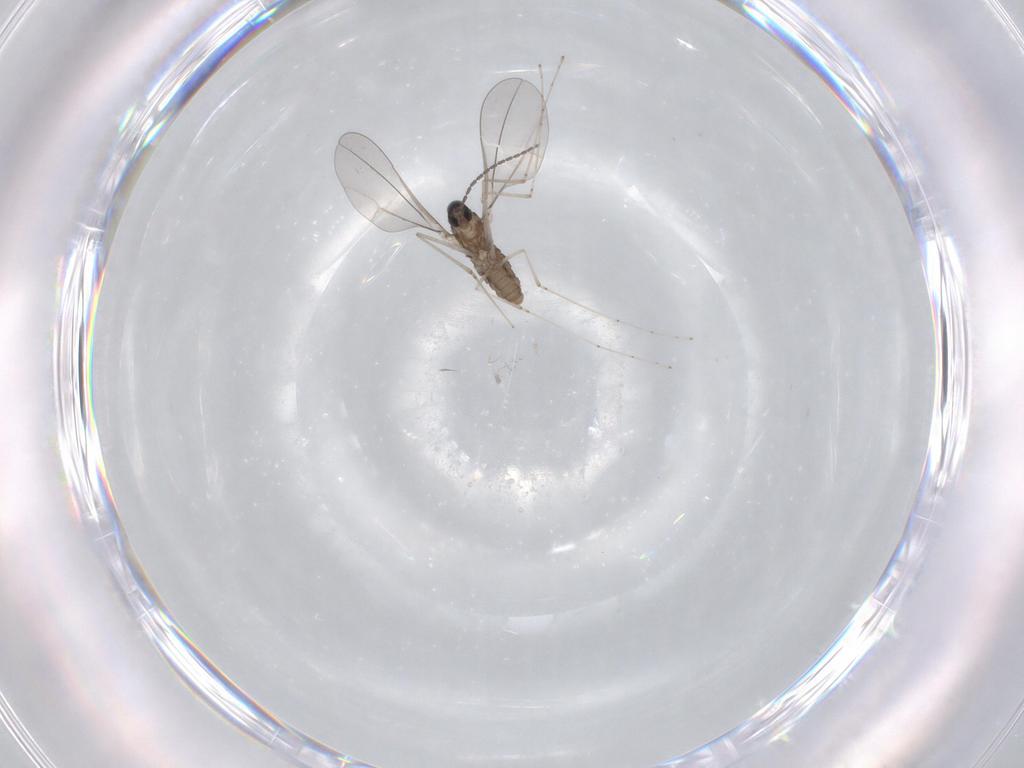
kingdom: Animalia
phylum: Arthropoda
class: Insecta
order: Diptera
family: Cecidomyiidae
